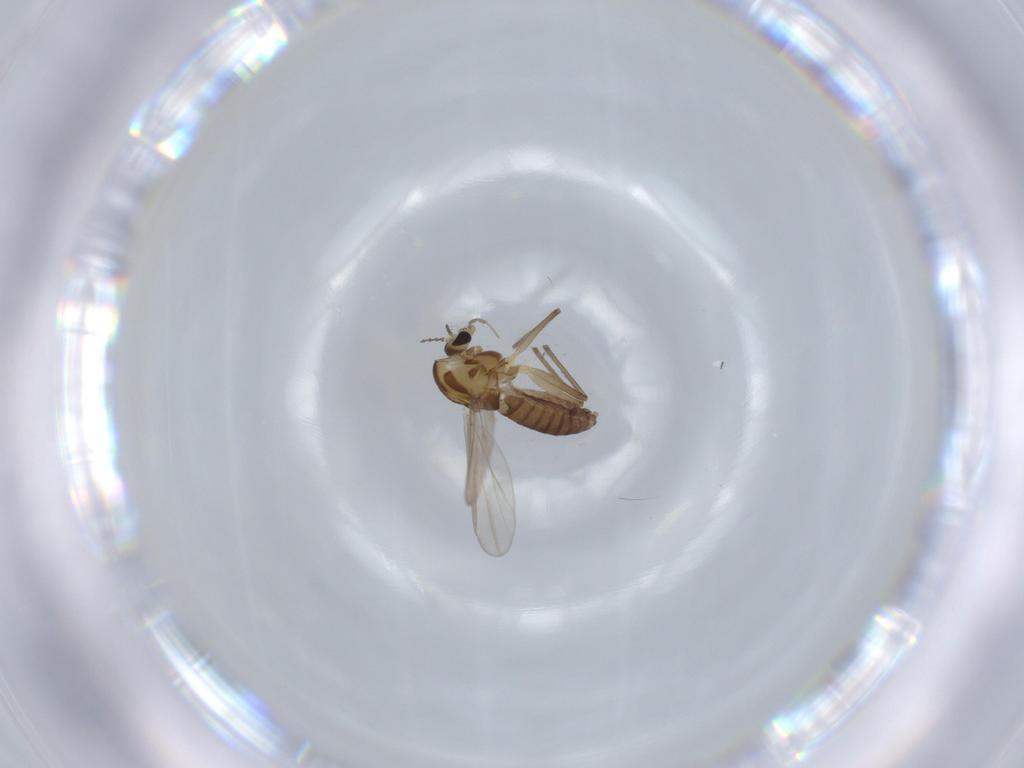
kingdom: Animalia
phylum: Arthropoda
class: Insecta
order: Diptera
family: Chironomidae
